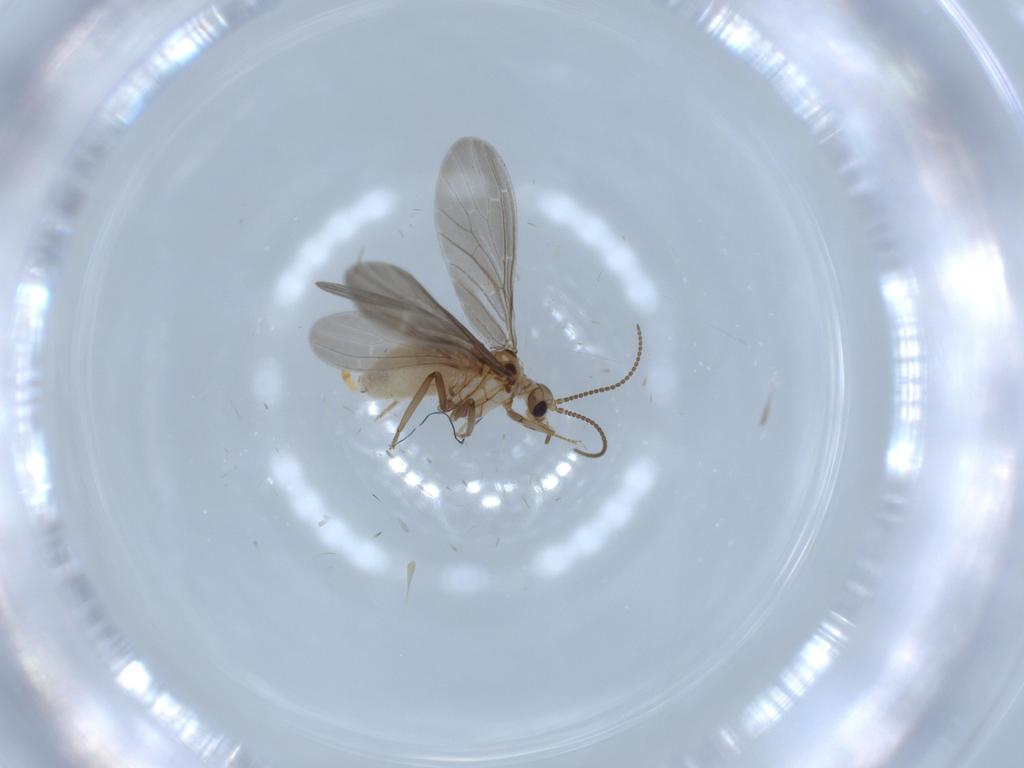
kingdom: Animalia
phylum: Arthropoda
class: Insecta
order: Neuroptera
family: Coniopterygidae
